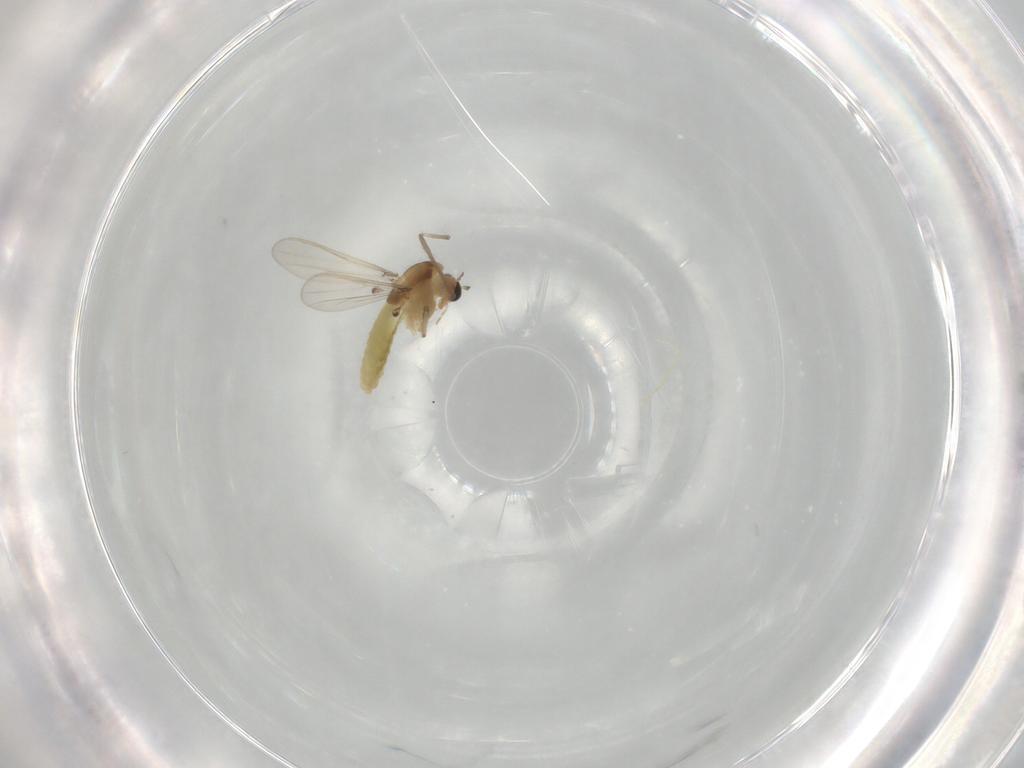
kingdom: Animalia
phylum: Arthropoda
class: Insecta
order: Diptera
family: Chironomidae
